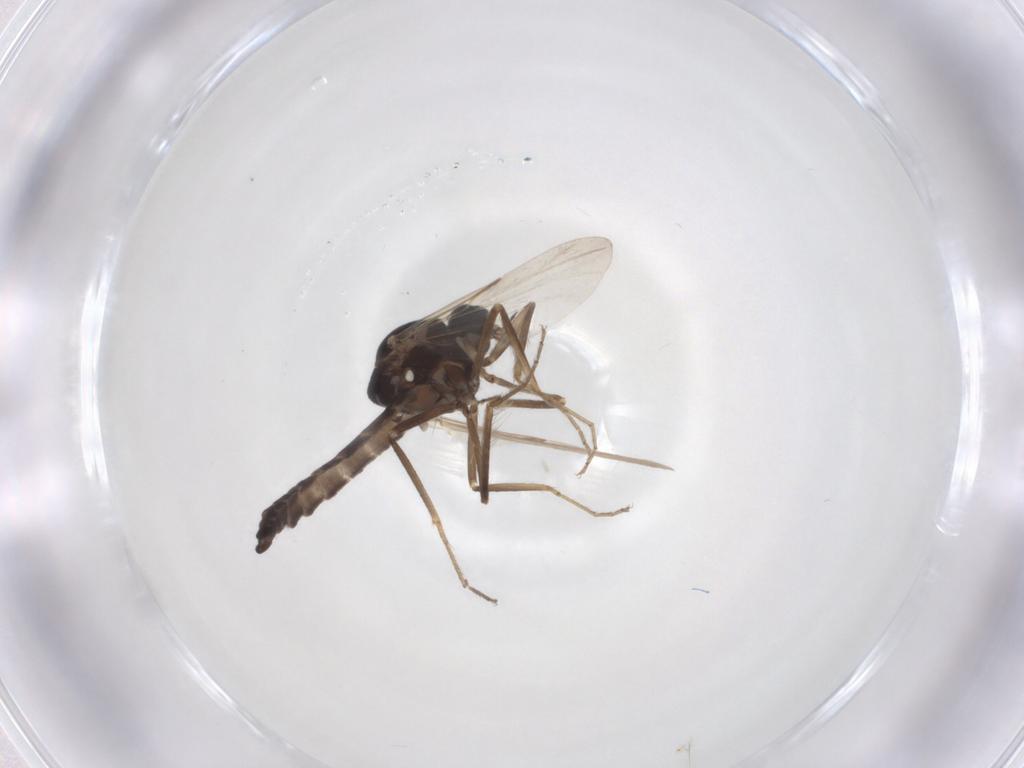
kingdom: Animalia
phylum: Arthropoda
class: Insecta
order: Diptera
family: Ceratopogonidae
